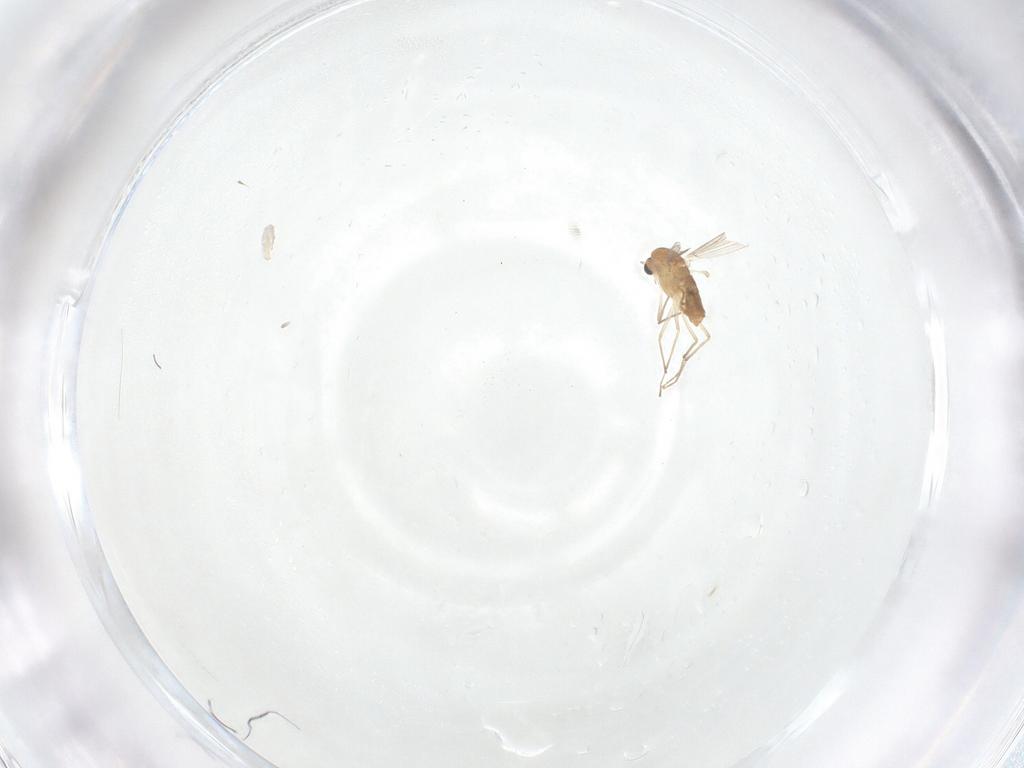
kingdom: Animalia
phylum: Arthropoda
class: Insecta
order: Diptera
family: Chironomidae
